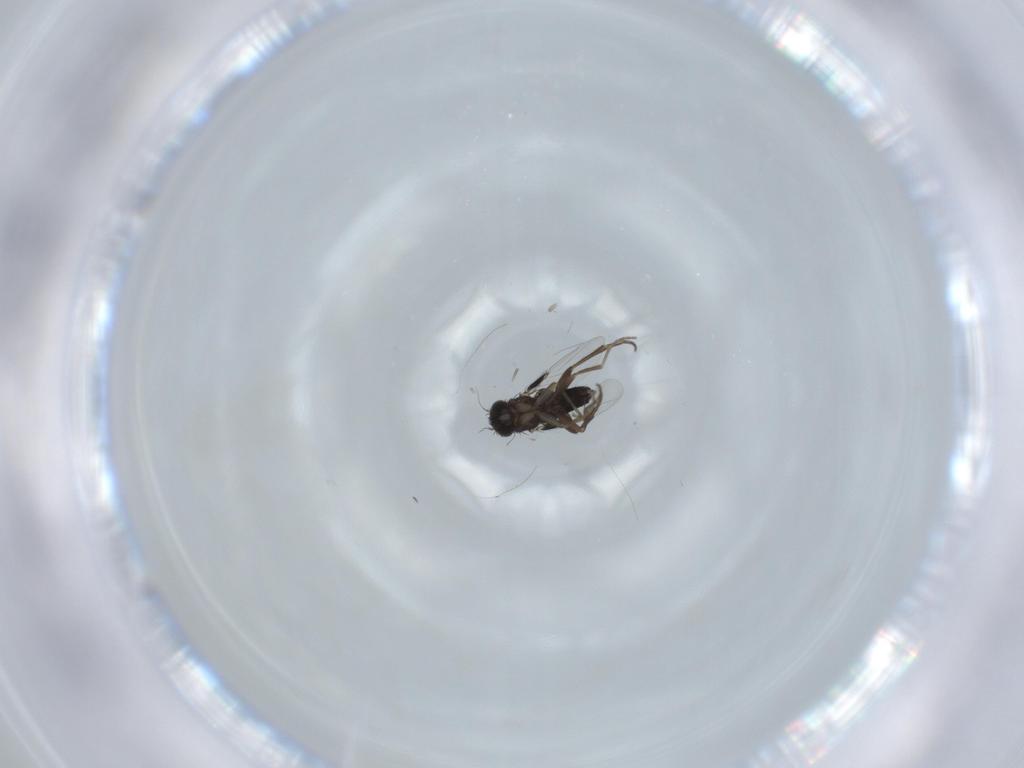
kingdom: Animalia
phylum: Arthropoda
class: Insecta
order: Diptera
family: Phoridae
